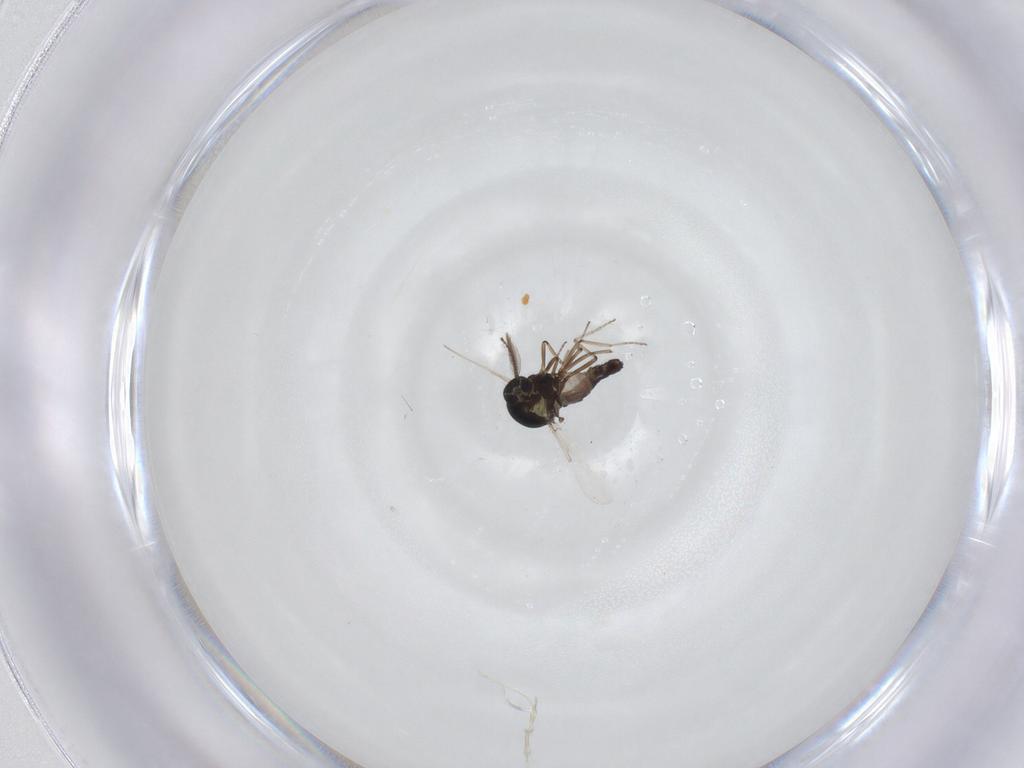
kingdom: Animalia
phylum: Arthropoda
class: Insecta
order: Diptera
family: Ceratopogonidae
